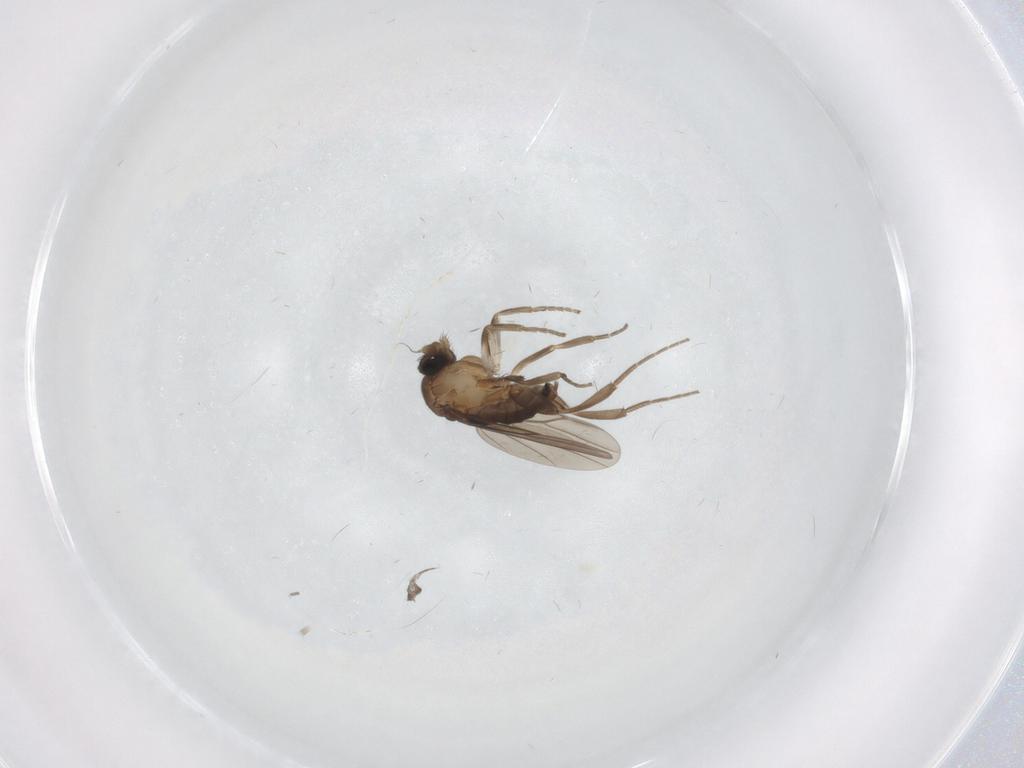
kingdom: Animalia
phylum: Arthropoda
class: Insecta
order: Diptera
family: Psychodidae
